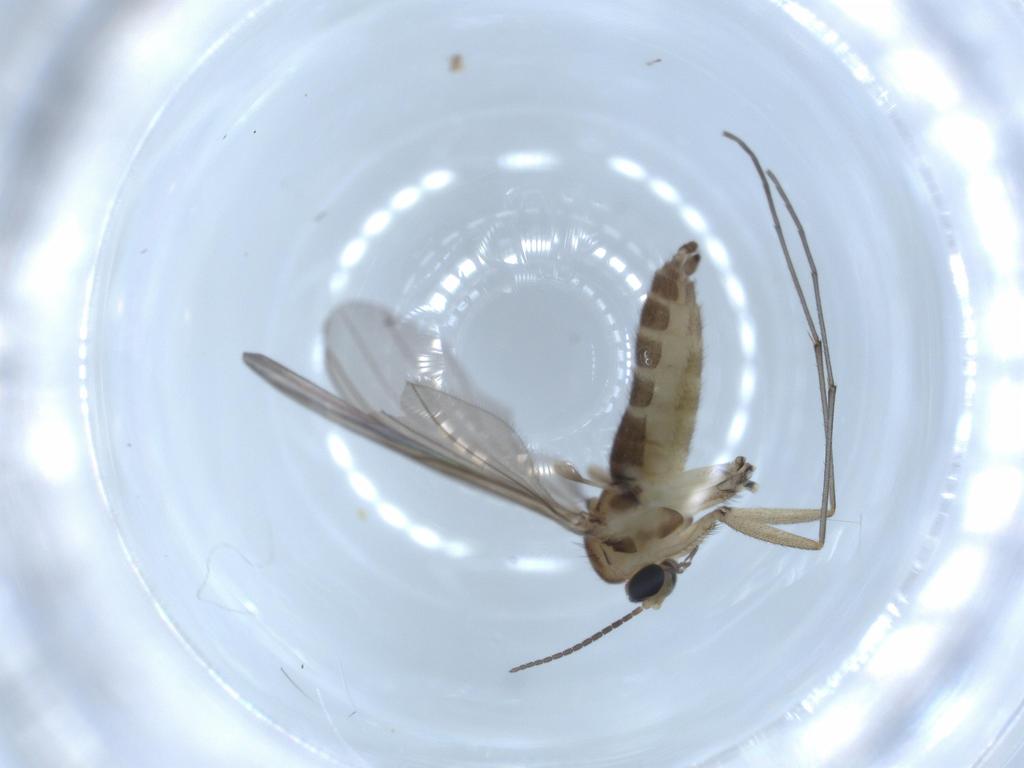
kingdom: Animalia
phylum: Arthropoda
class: Insecta
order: Diptera
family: Sciaridae
